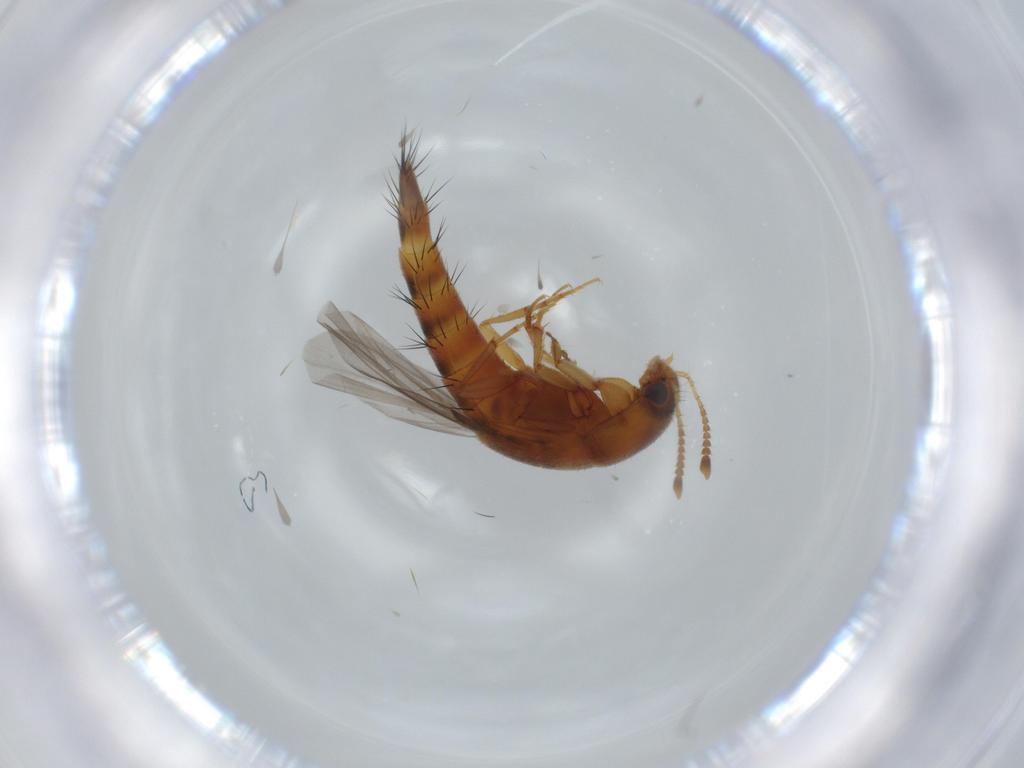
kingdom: Animalia
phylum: Arthropoda
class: Insecta
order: Coleoptera
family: Staphylinidae
